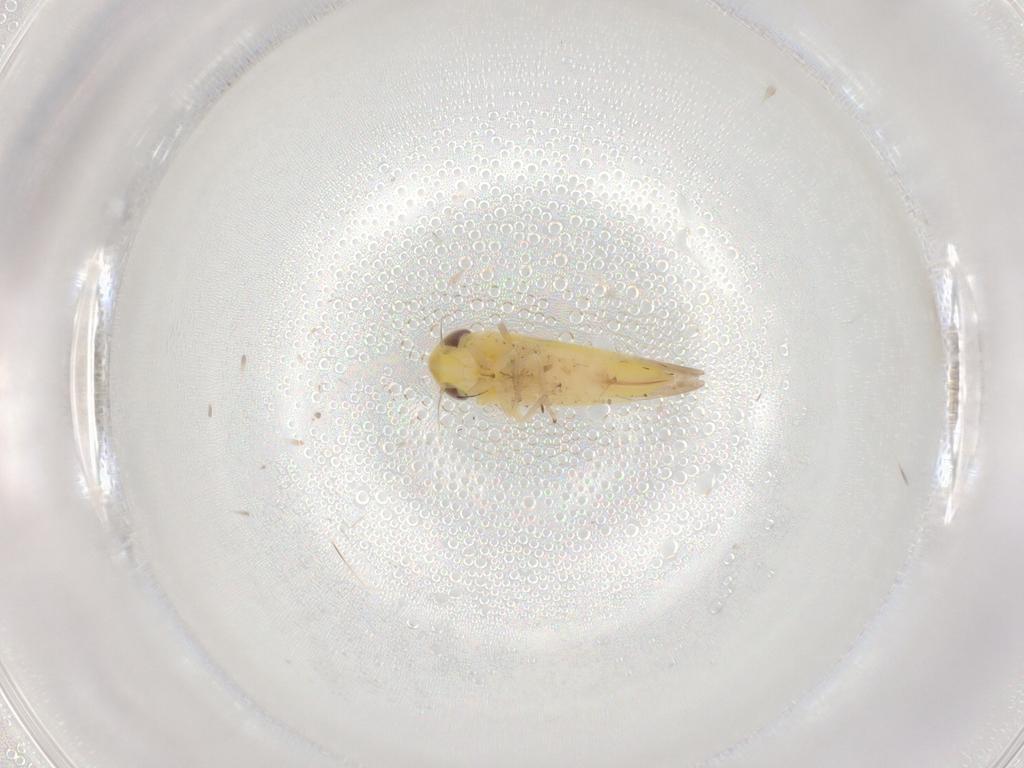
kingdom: Animalia
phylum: Arthropoda
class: Insecta
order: Hemiptera
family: Cicadellidae
